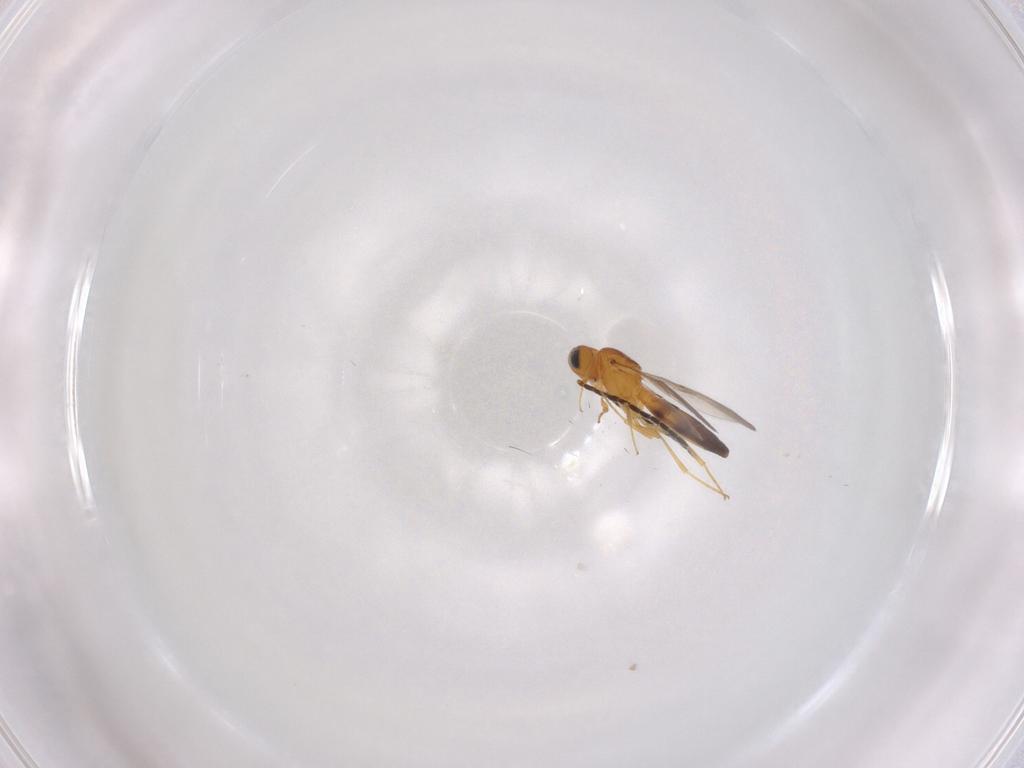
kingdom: Animalia
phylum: Arthropoda
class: Insecta
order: Hymenoptera
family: Scelionidae
